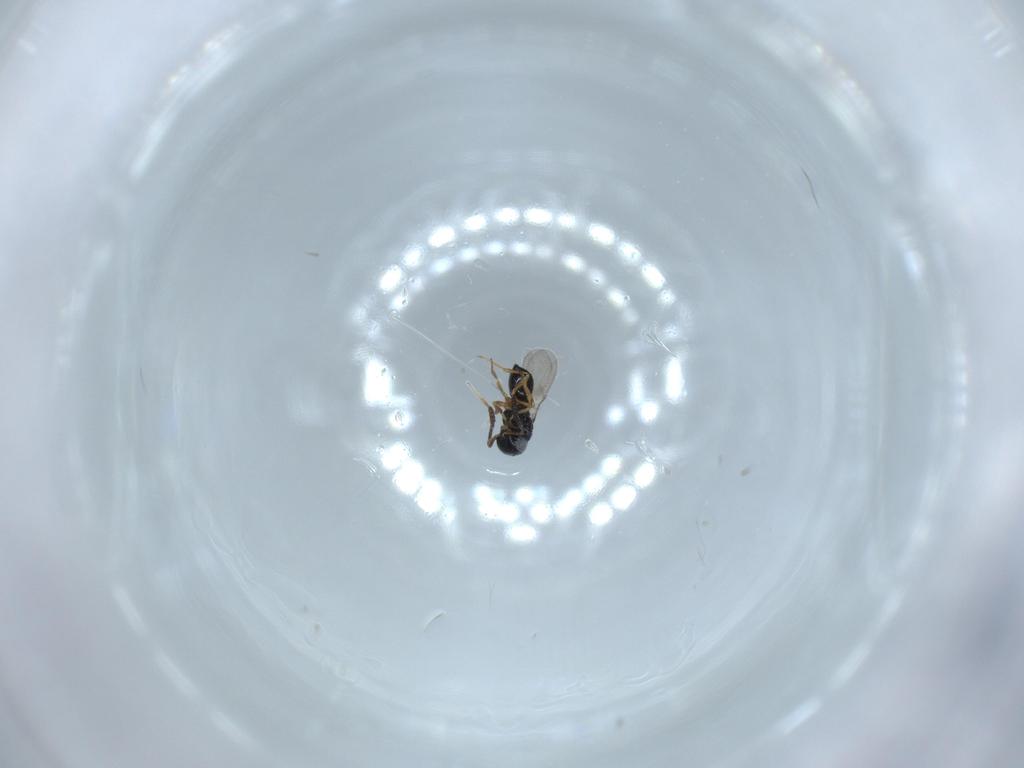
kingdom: Animalia
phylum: Arthropoda
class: Insecta
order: Hymenoptera
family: Scelionidae
